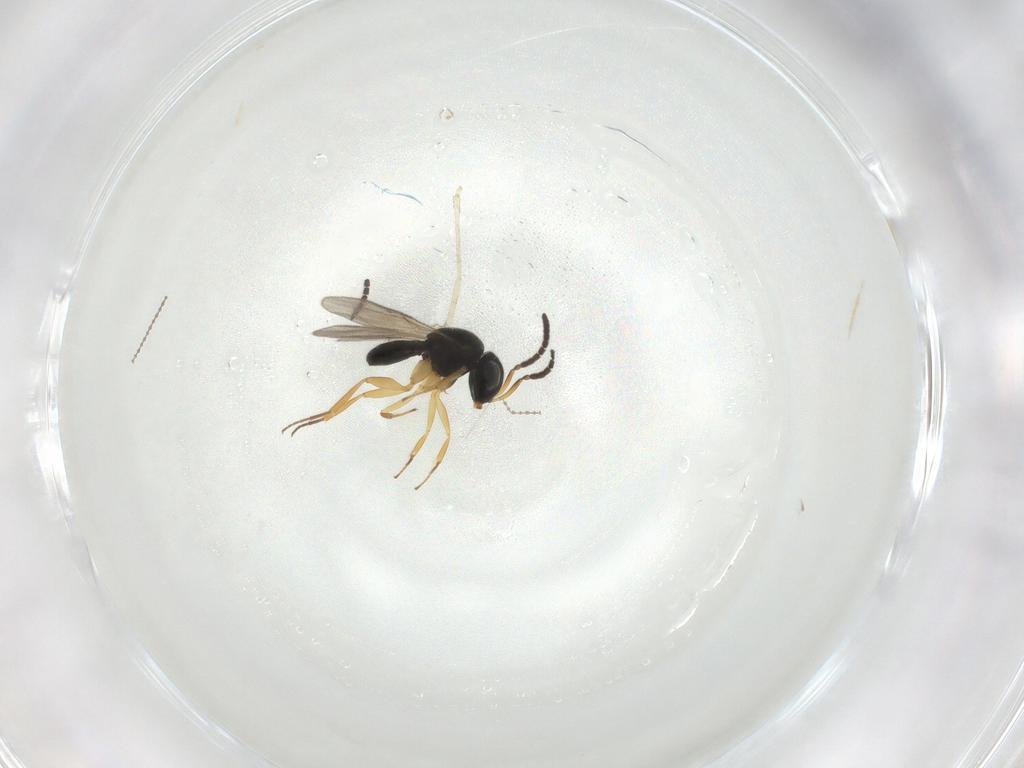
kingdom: Animalia
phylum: Arthropoda
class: Insecta
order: Hymenoptera
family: Scelionidae
